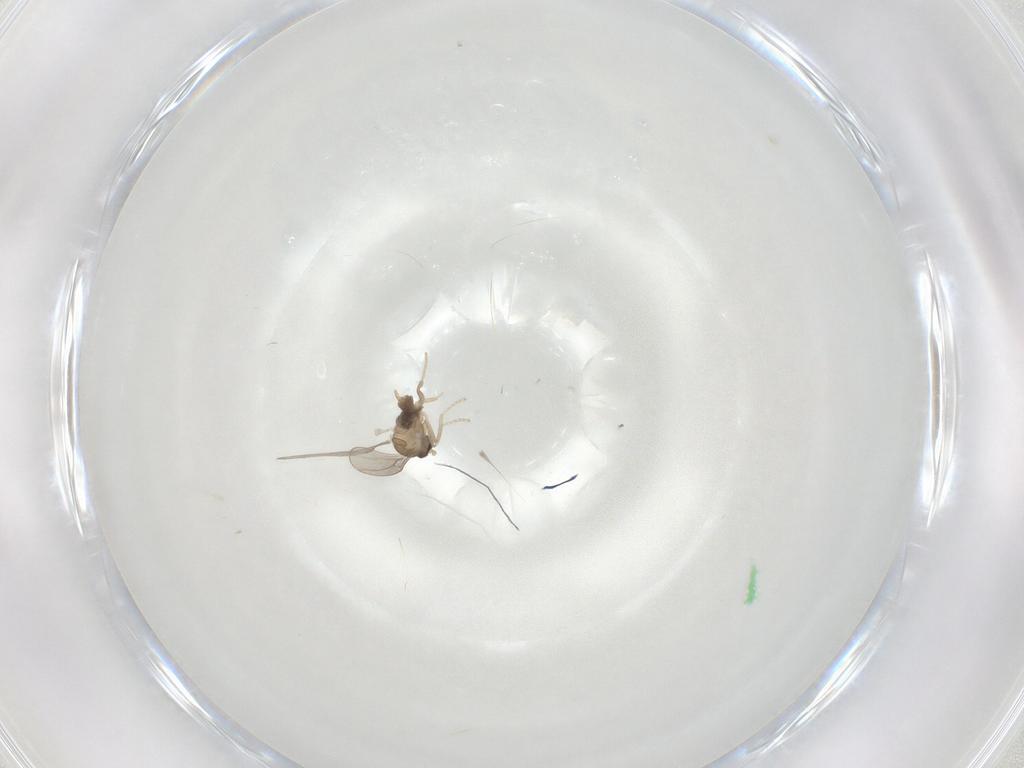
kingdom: Animalia
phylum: Arthropoda
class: Insecta
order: Diptera
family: Cecidomyiidae
